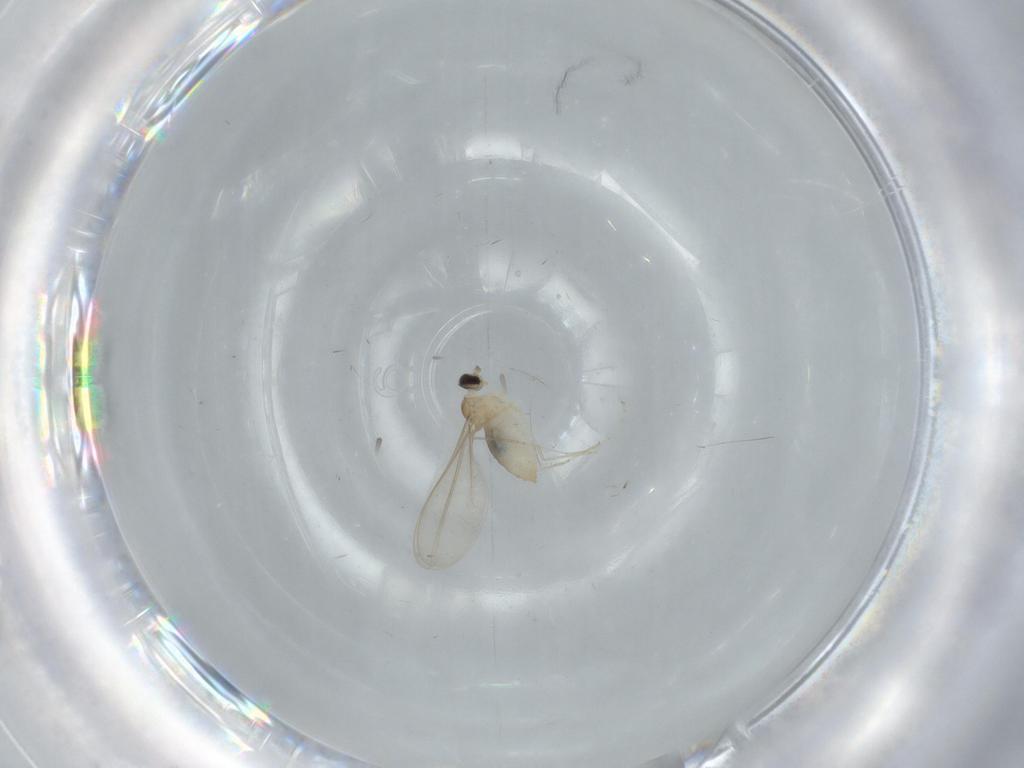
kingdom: Animalia
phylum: Arthropoda
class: Insecta
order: Diptera
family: Cecidomyiidae
